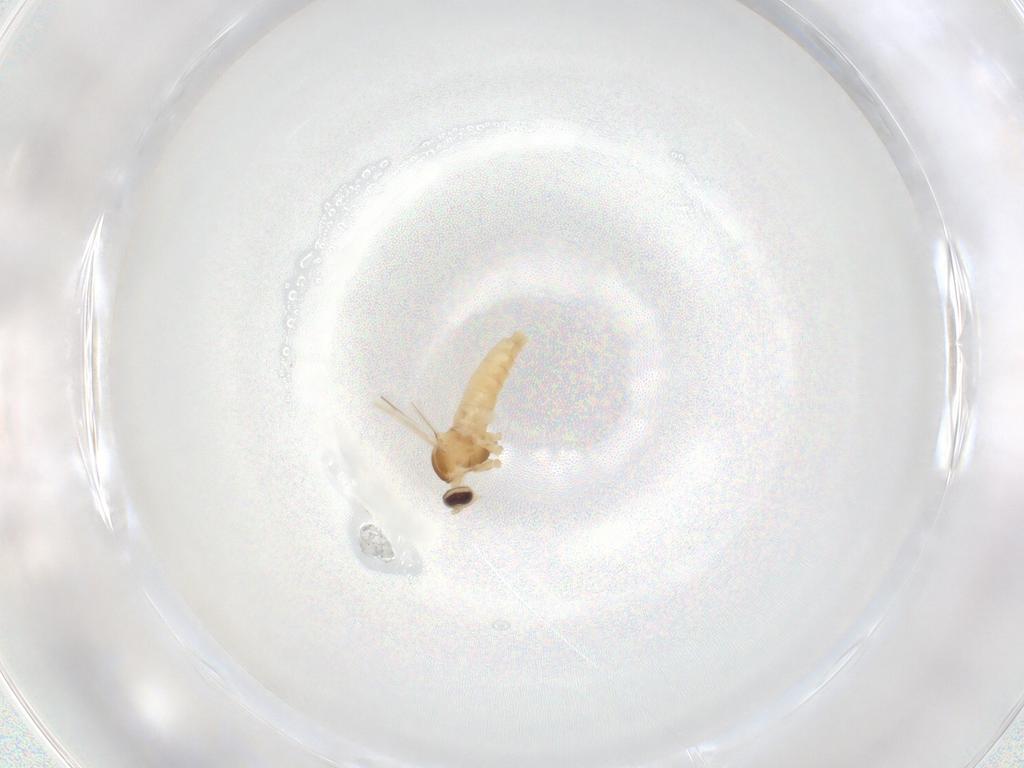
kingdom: Animalia
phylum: Arthropoda
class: Insecta
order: Diptera
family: Cecidomyiidae
